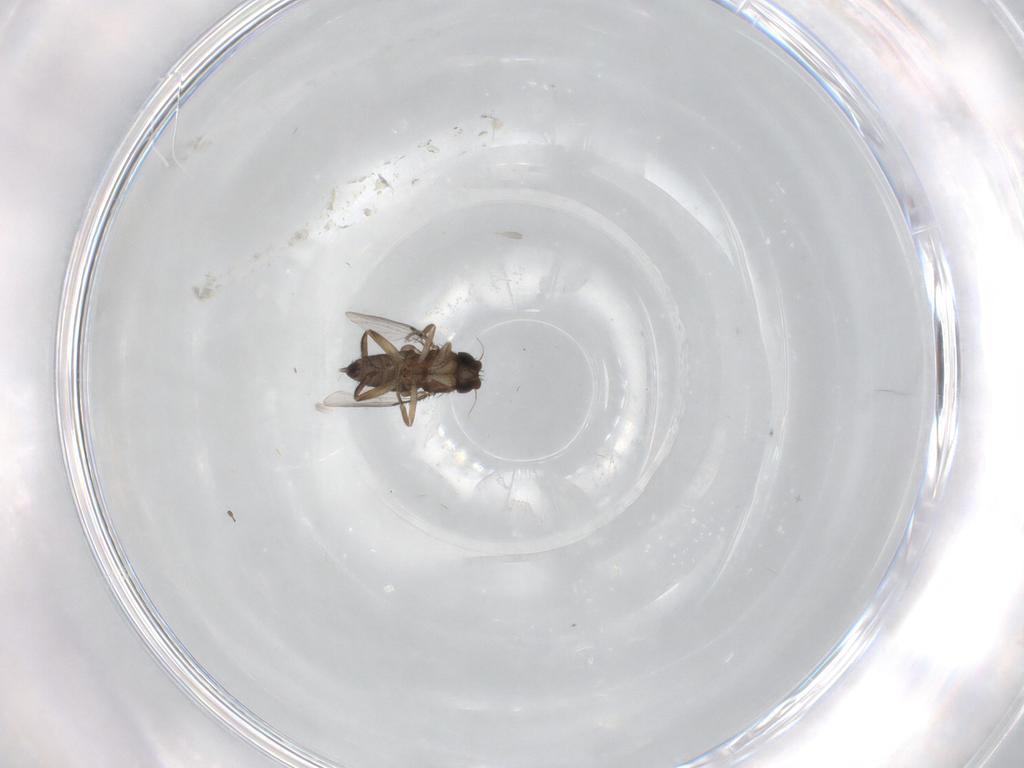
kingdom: Animalia
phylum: Arthropoda
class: Insecta
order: Diptera
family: Phoridae
